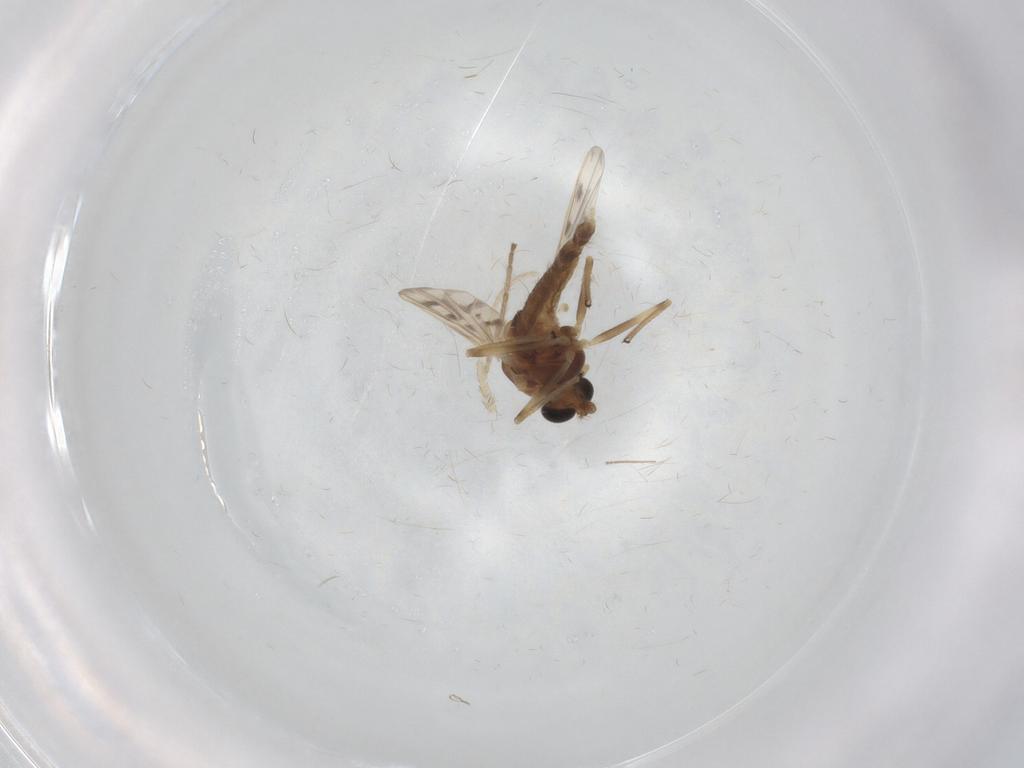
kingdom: Animalia
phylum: Arthropoda
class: Insecta
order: Diptera
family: Chironomidae
